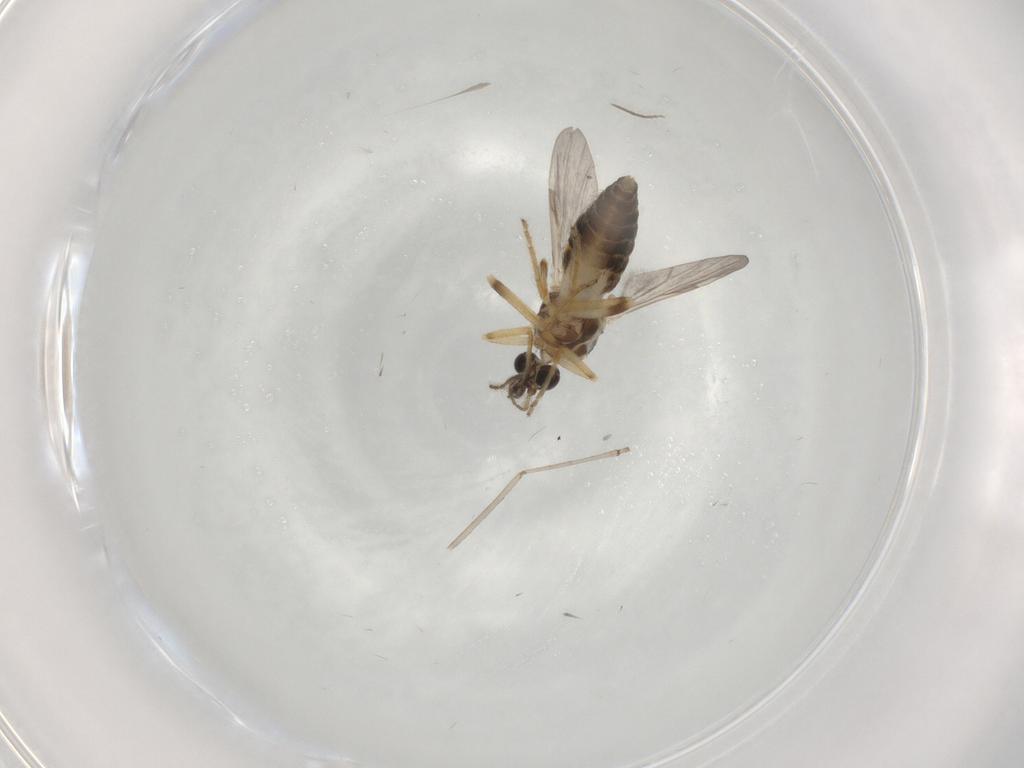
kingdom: Animalia
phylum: Arthropoda
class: Insecta
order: Diptera
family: Ceratopogonidae
